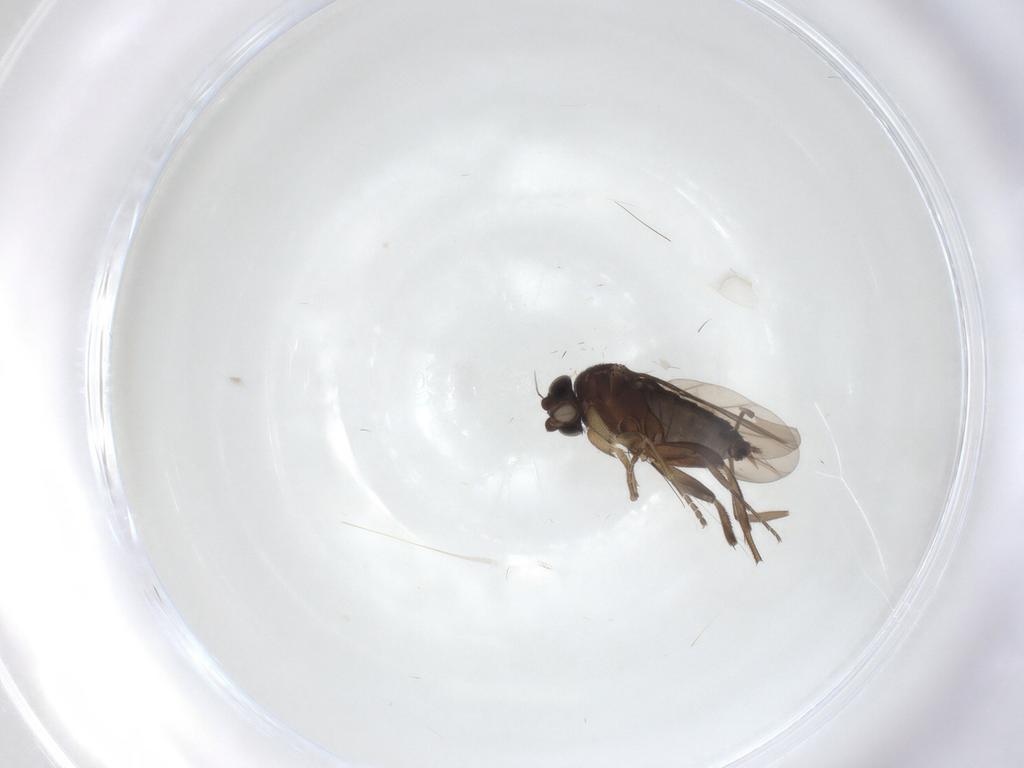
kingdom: Animalia
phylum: Arthropoda
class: Insecta
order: Diptera
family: Phoridae
